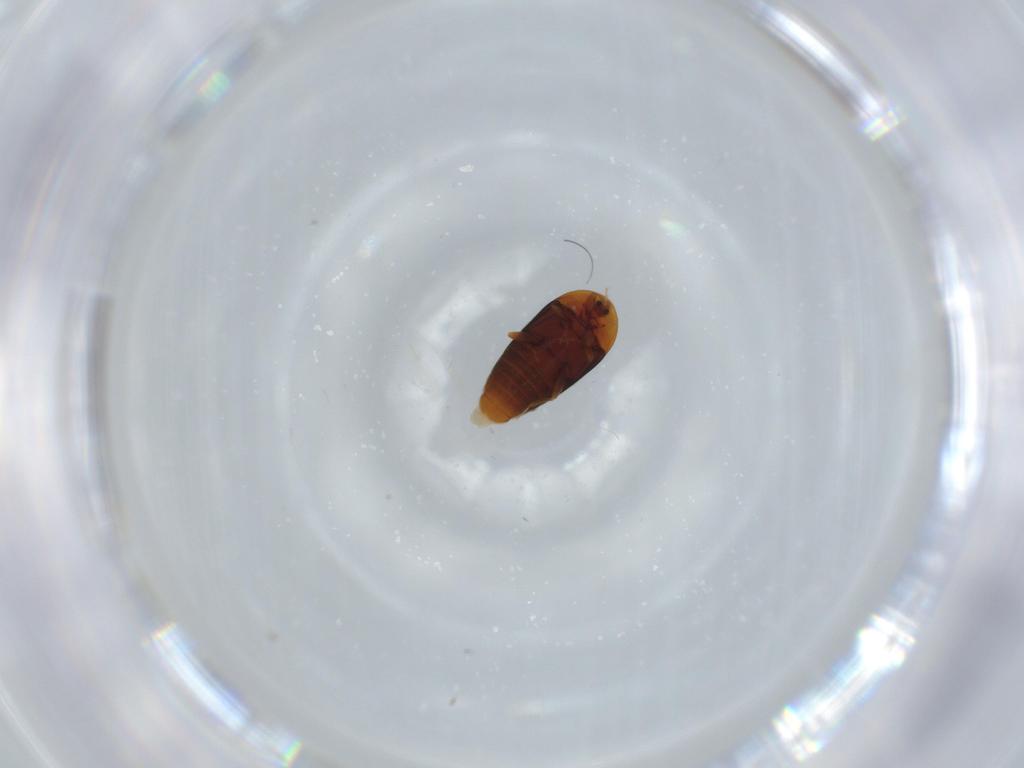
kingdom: Animalia
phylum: Arthropoda
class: Insecta
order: Coleoptera
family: Corylophidae
